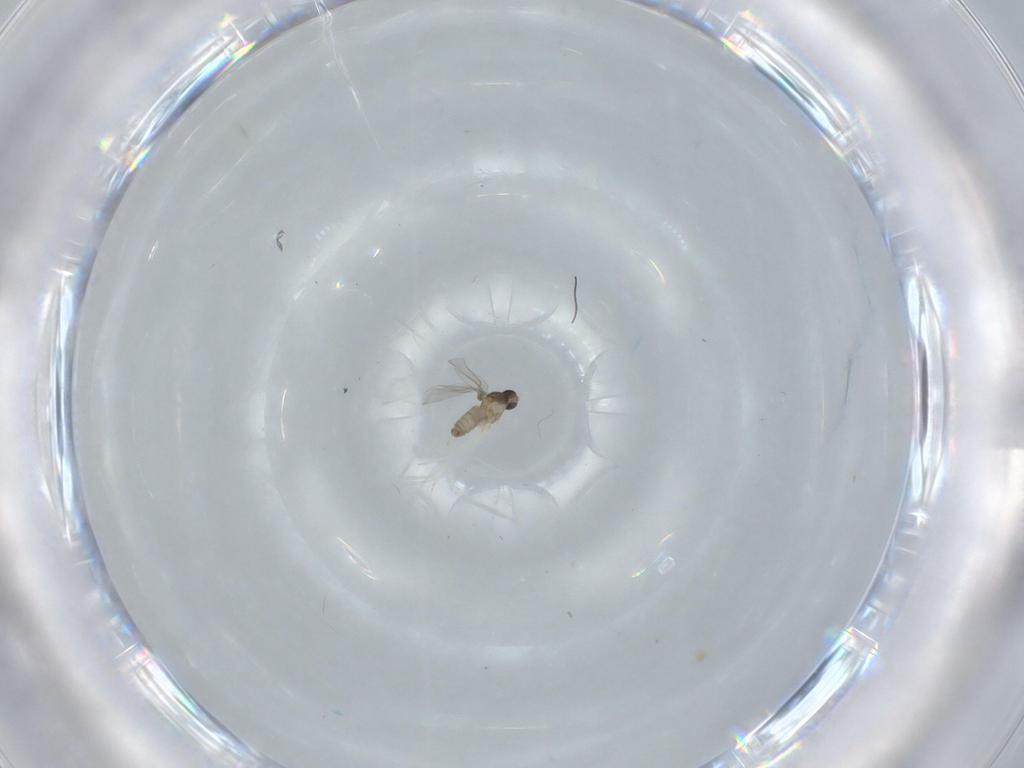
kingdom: Animalia
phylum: Arthropoda
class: Insecta
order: Diptera
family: Cecidomyiidae
